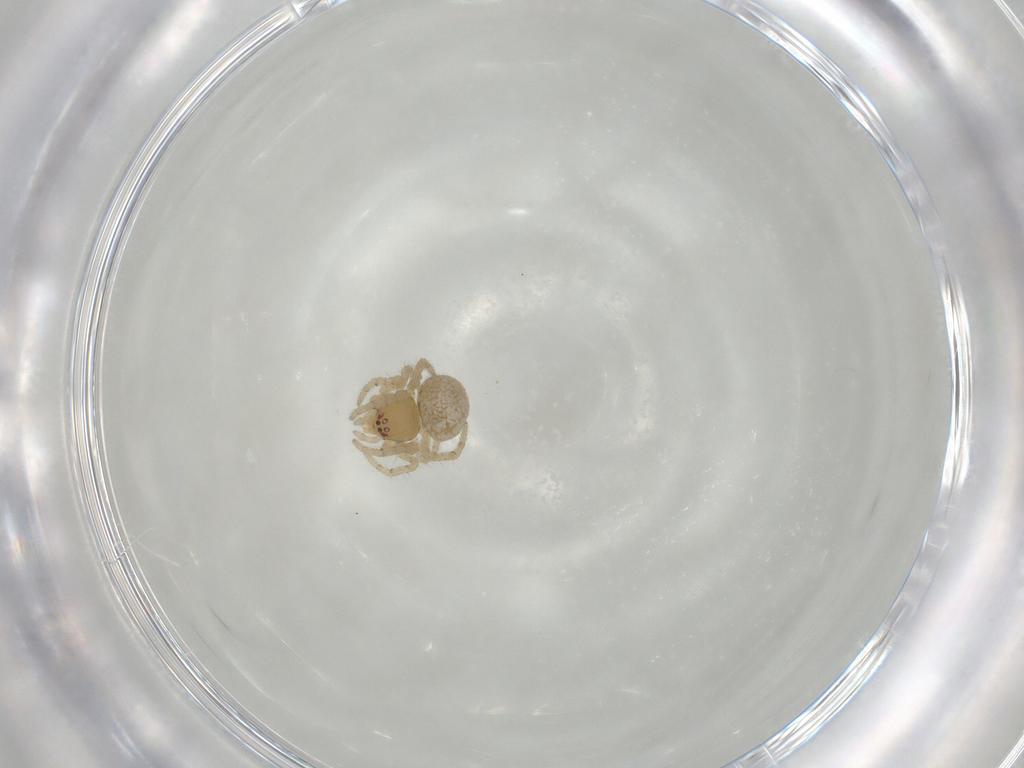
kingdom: Animalia
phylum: Arthropoda
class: Arachnida
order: Araneae
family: Theridiidae
